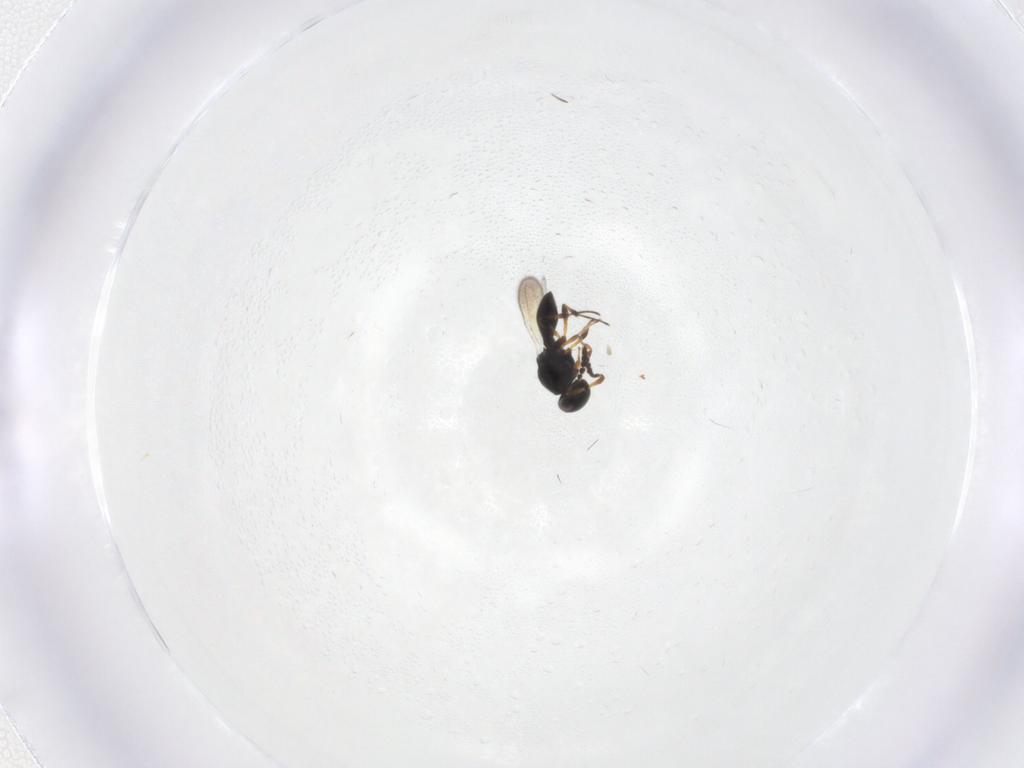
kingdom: Animalia
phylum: Arthropoda
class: Insecta
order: Hymenoptera
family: Platygastridae
